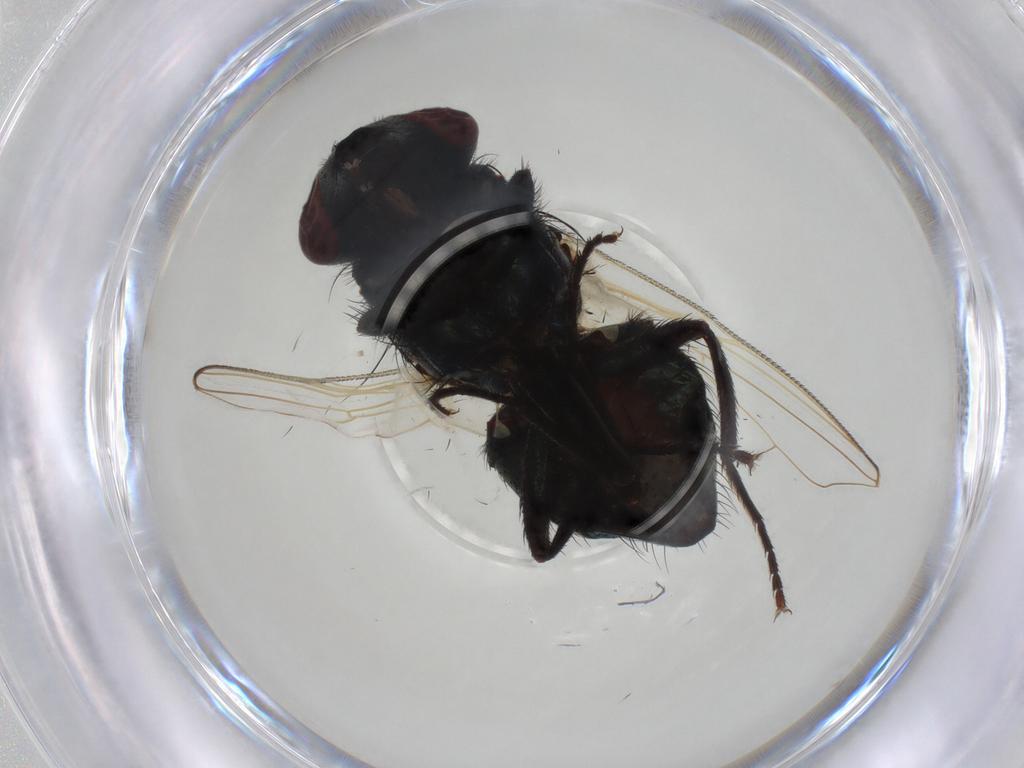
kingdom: Animalia
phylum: Arthropoda
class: Insecta
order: Diptera
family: Muscidae
